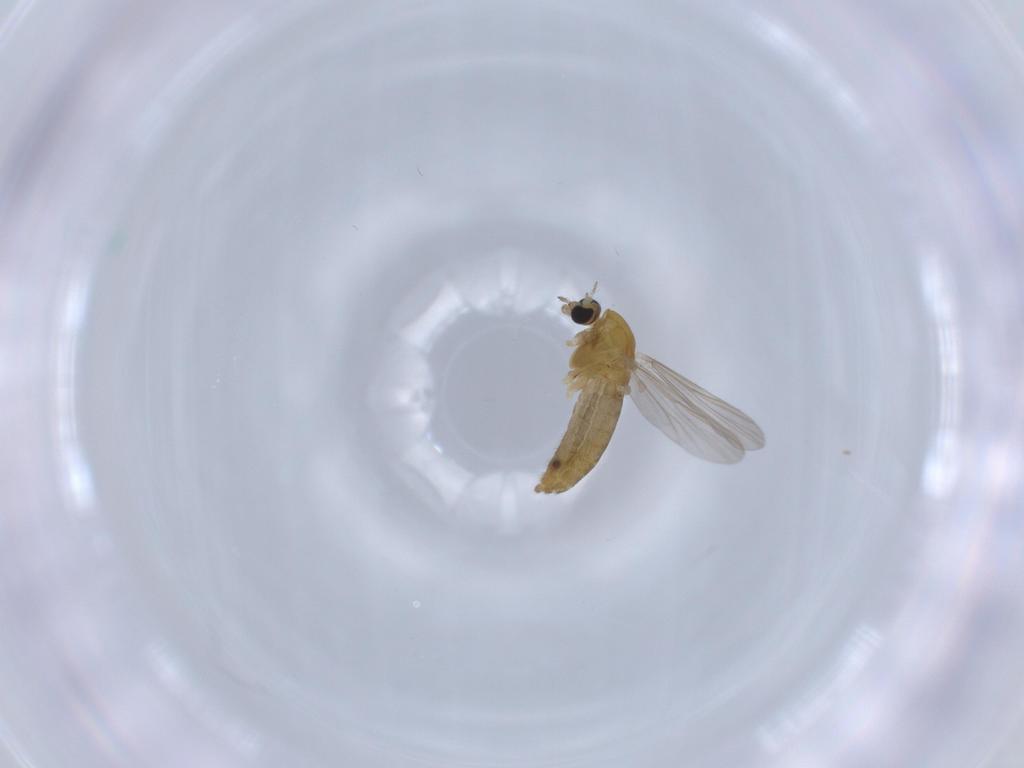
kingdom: Animalia
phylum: Arthropoda
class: Insecta
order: Diptera
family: Chironomidae
